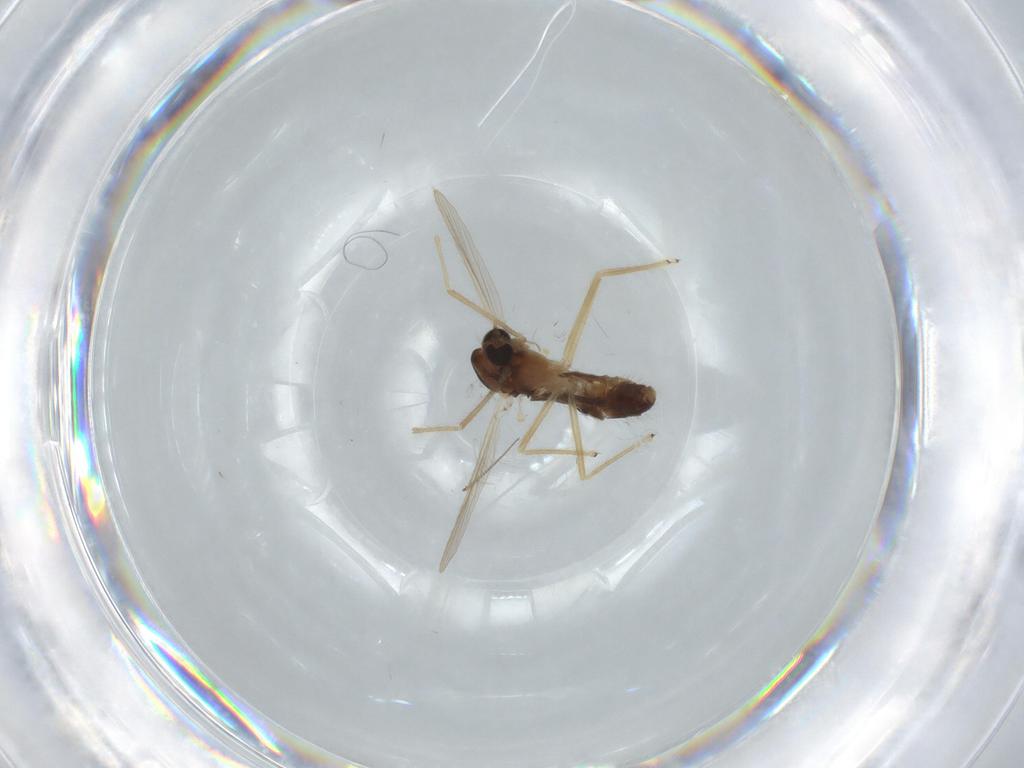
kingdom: Animalia
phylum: Arthropoda
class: Insecta
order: Diptera
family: Chironomidae
